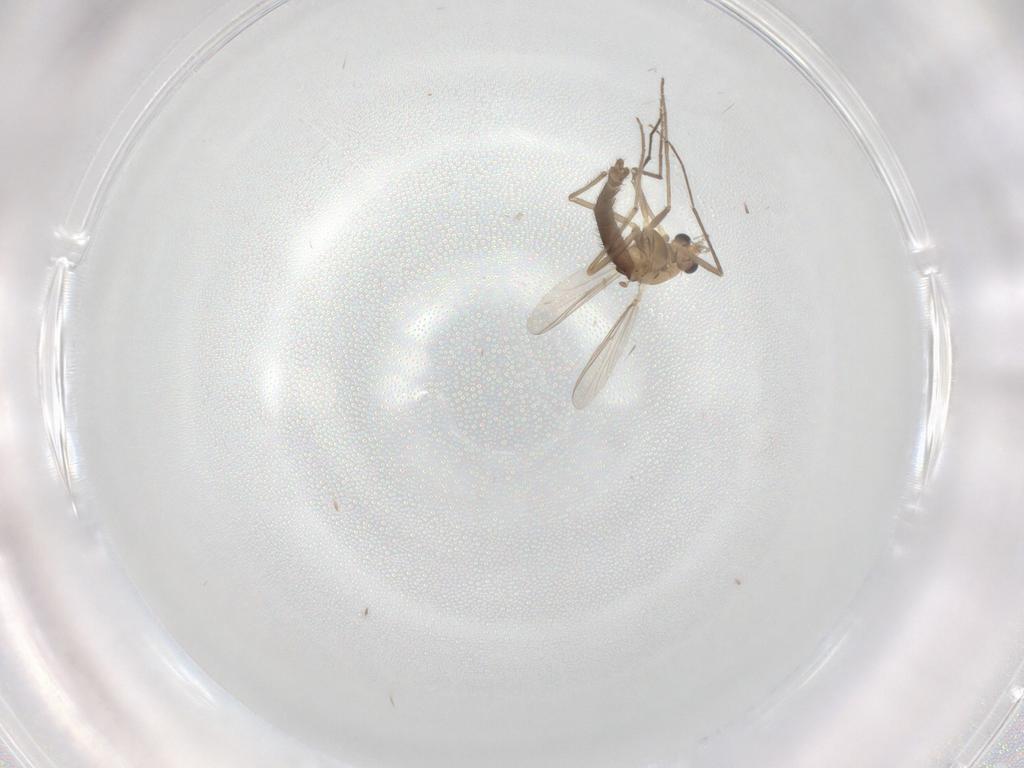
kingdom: Animalia
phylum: Arthropoda
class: Insecta
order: Diptera
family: Chironomidae
